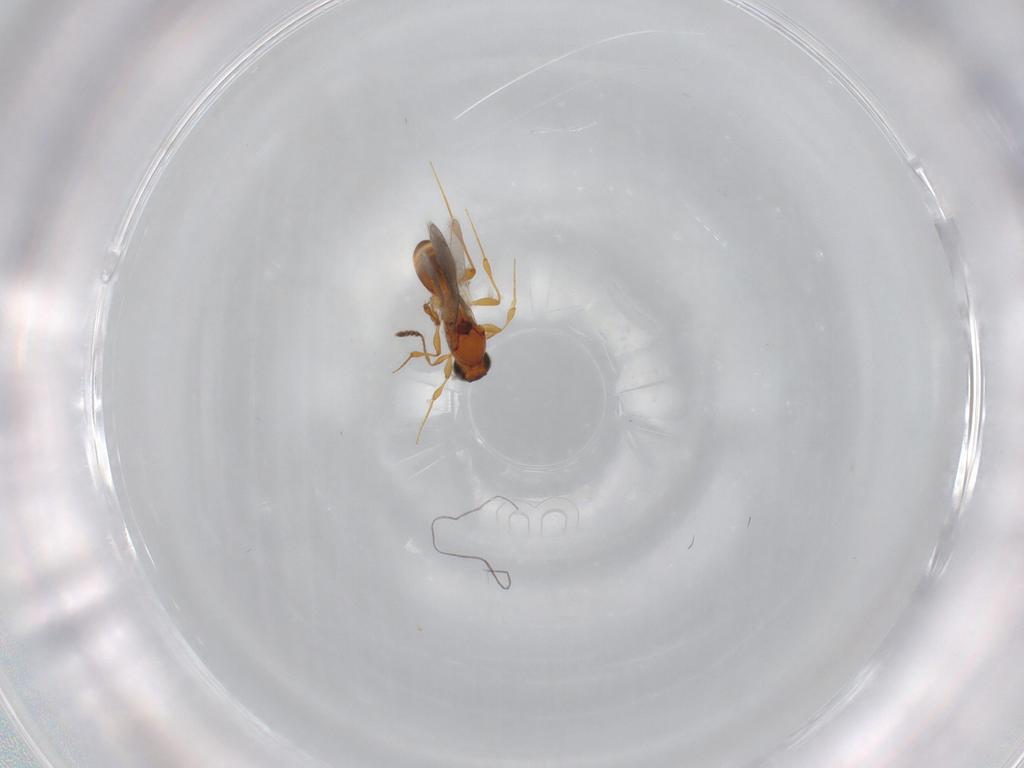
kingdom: Animalia
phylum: Arthropoda
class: Insecta
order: Hymenoptera
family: Platygastridae
